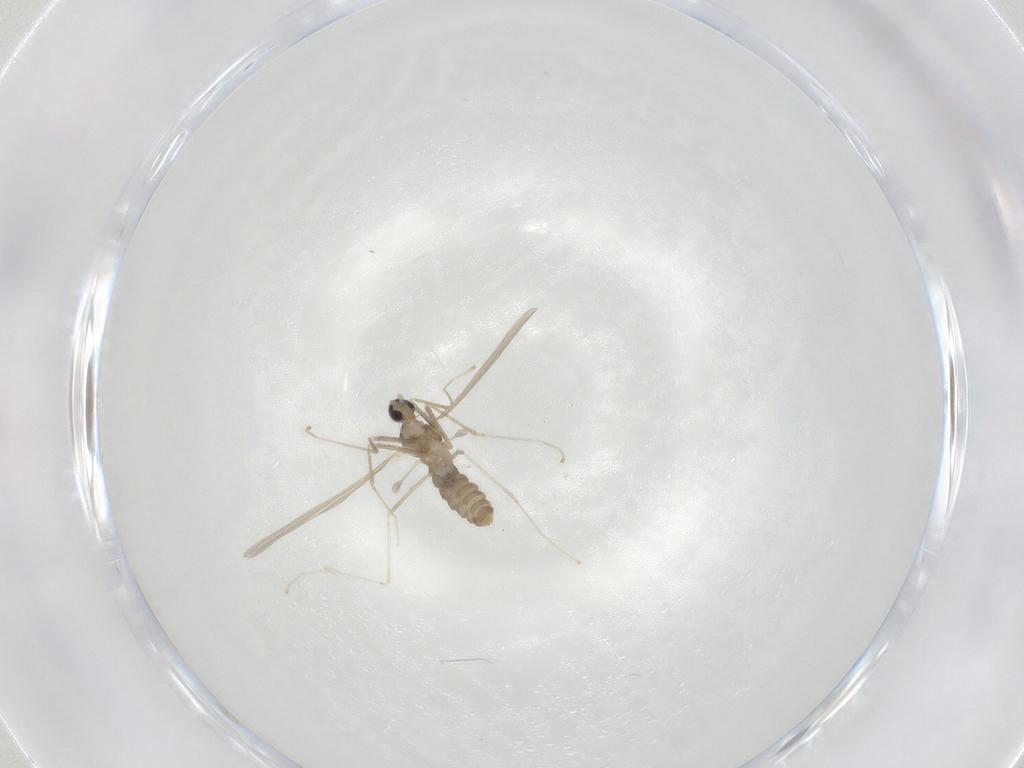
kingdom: Animalia
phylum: Arthropoda
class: Insecta
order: Diptera
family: Cecidomyiidae
